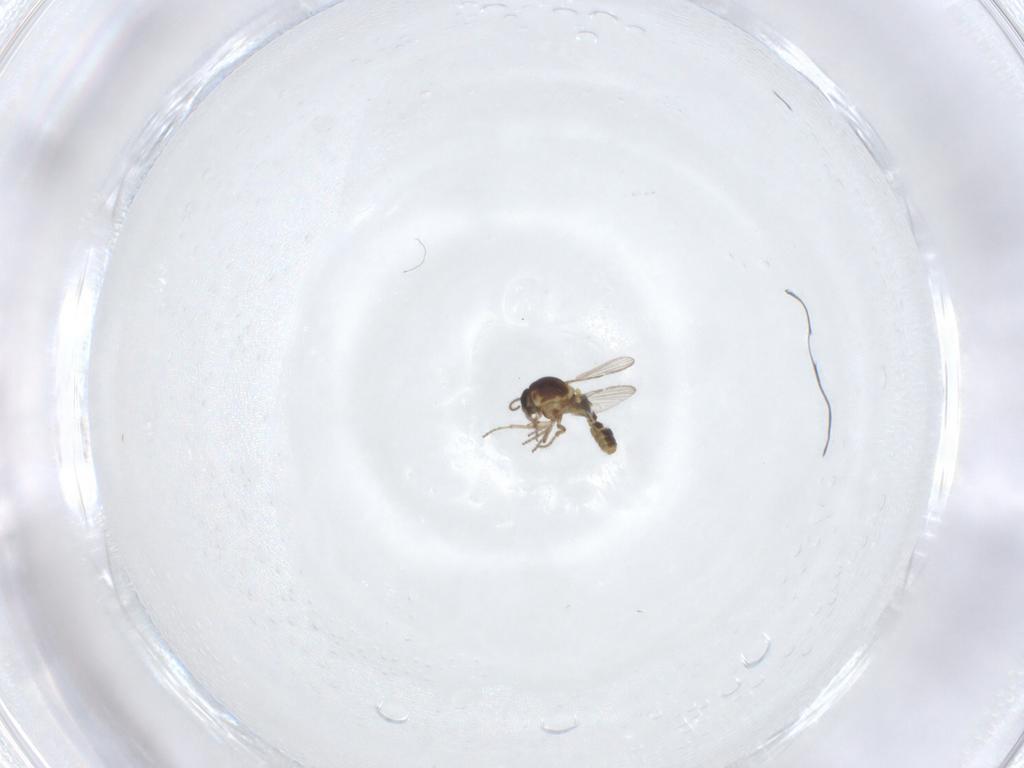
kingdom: Animalia
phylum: Arthropoda
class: Insecta
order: Diptera
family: Ceratopogonidae
